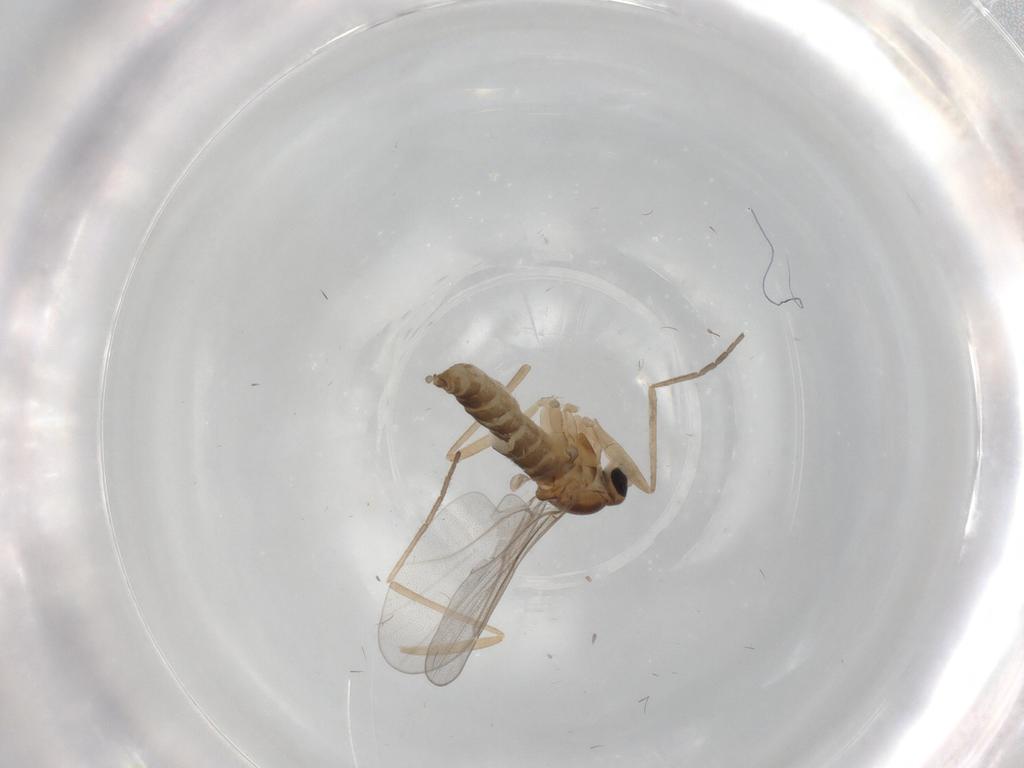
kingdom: Animalia
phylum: Arthropoda
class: Insecta
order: Diptera
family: Cecidomyiidae
